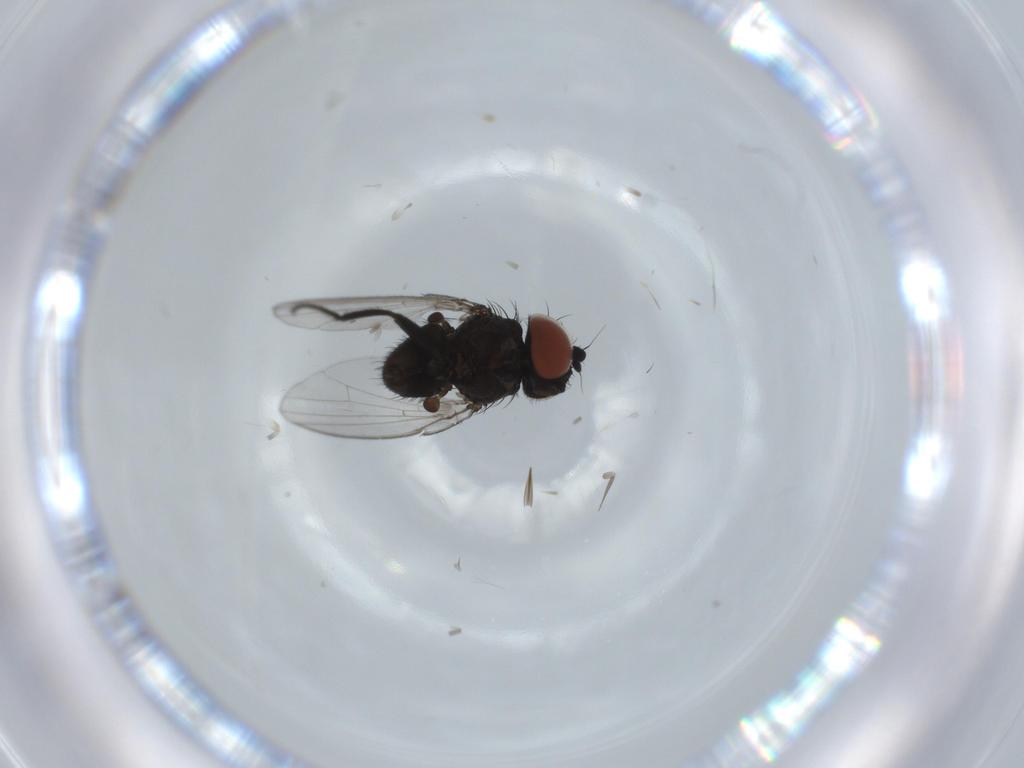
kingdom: Animalia
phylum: Arthropoda
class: Insecta
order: Diptera
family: Milichiidae
